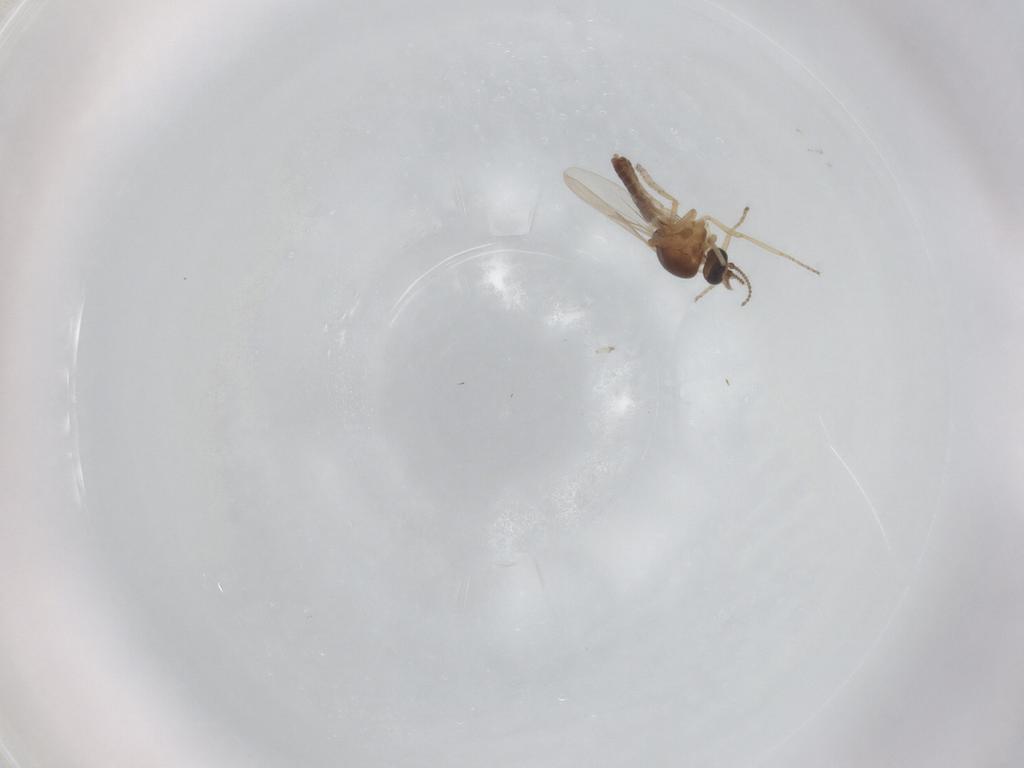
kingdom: Animalia
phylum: Arthropoda
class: Insecta
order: Diptera
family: Ceratopogonidae
